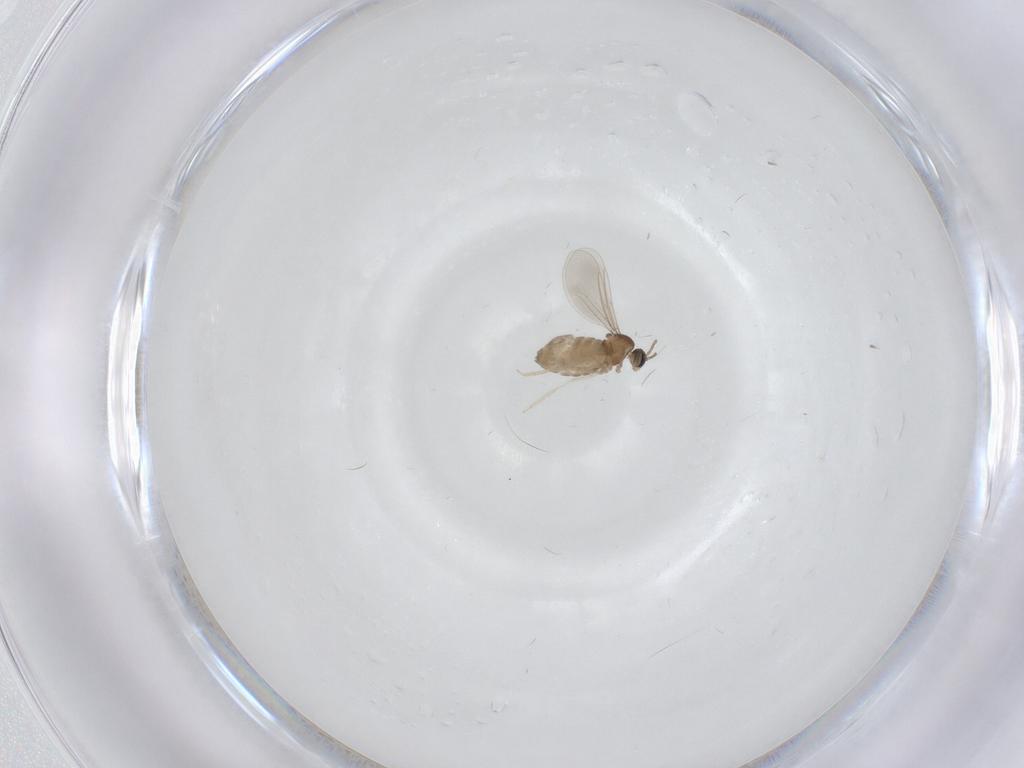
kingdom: Animalia
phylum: Arthropoda
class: Insecta
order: Diptera
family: Cecidomyiidae
